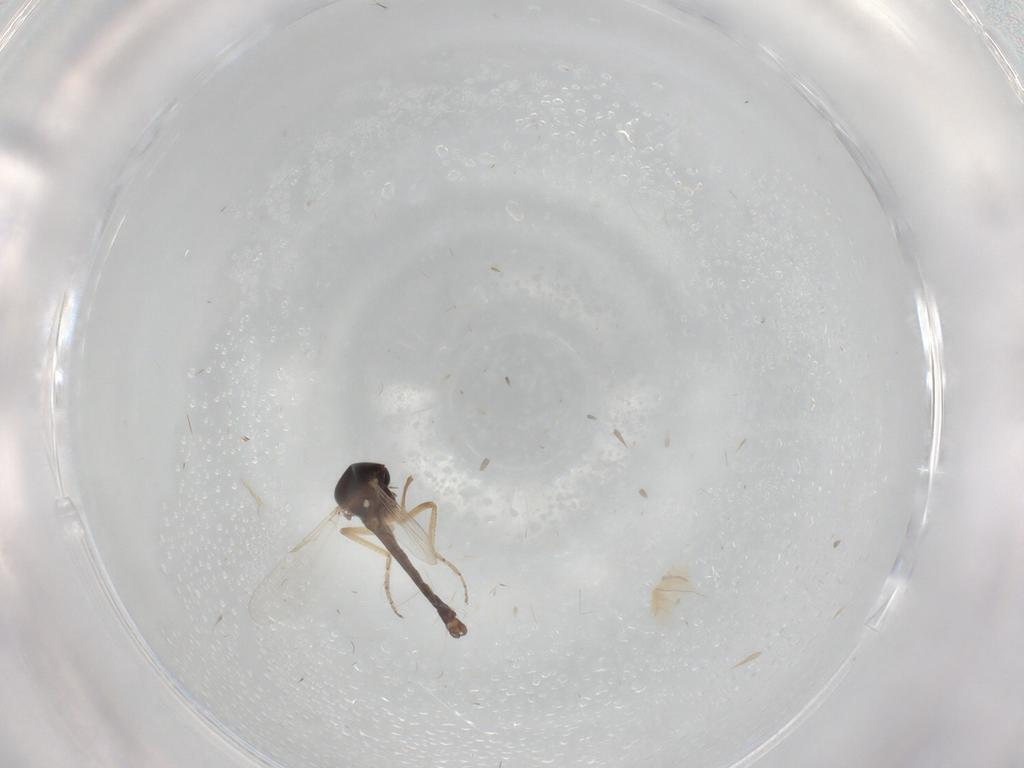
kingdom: Animalia
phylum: Arthropoda
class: Insecta
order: Diptera
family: Ceratopogonidae
